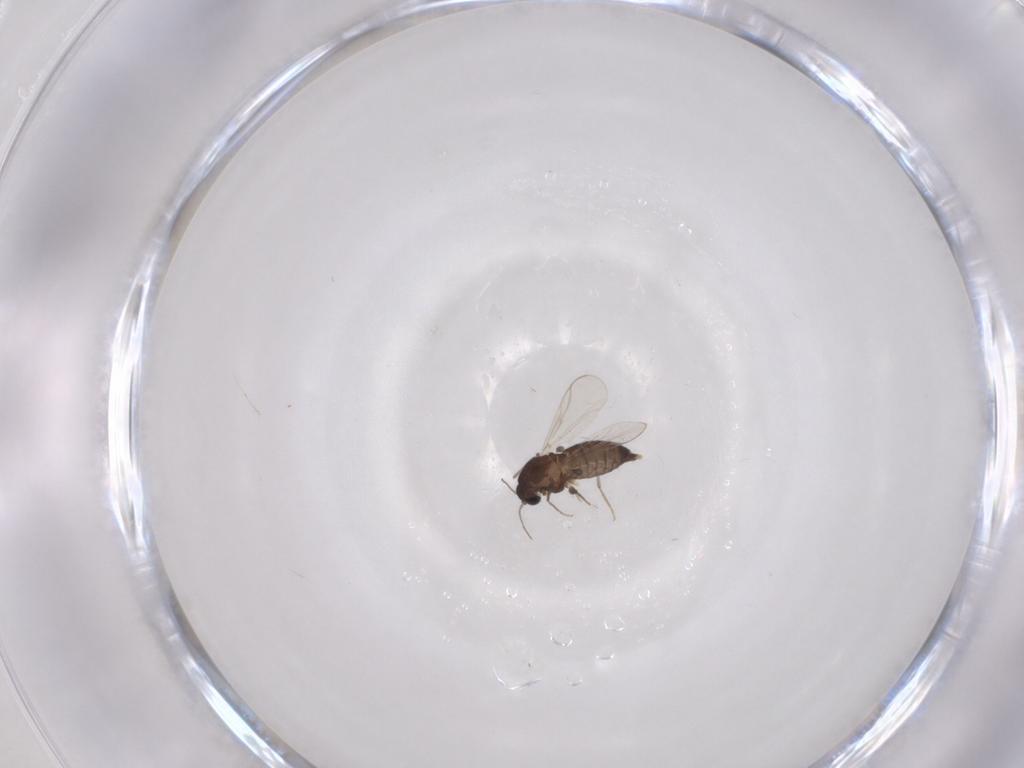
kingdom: Animalia
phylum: Arthropoda
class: Insecta
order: Diptera
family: Chironomidae
